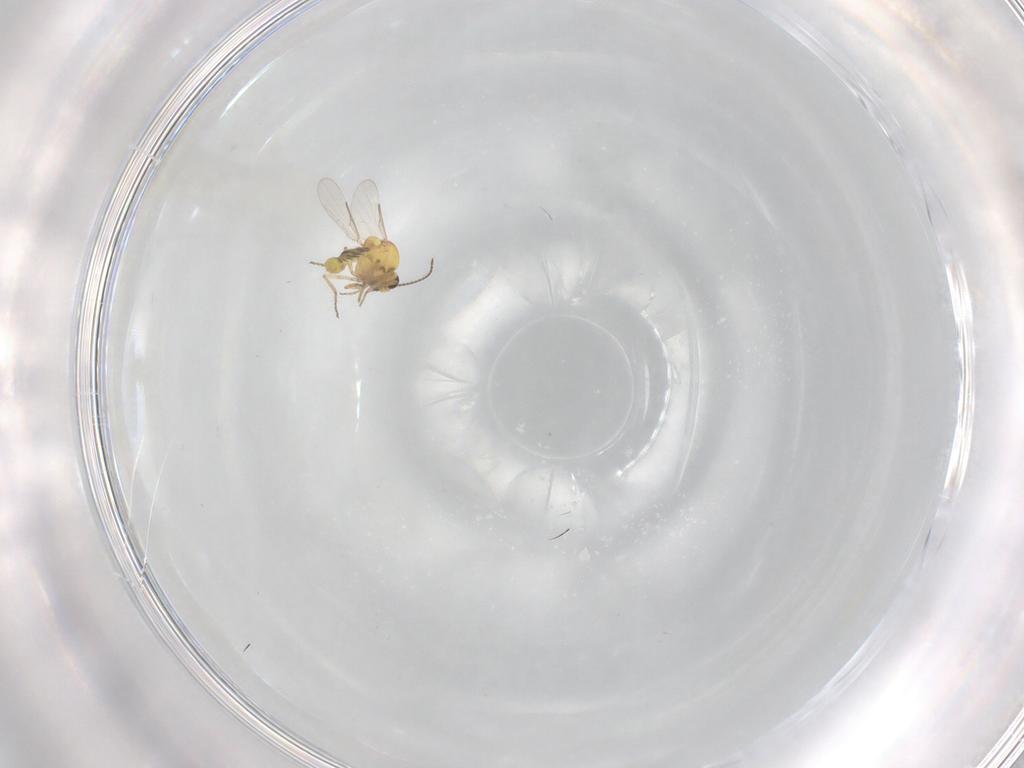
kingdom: Animalia
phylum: Arthropoda
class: Insecta
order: Diptera
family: Ceratopogonidae
